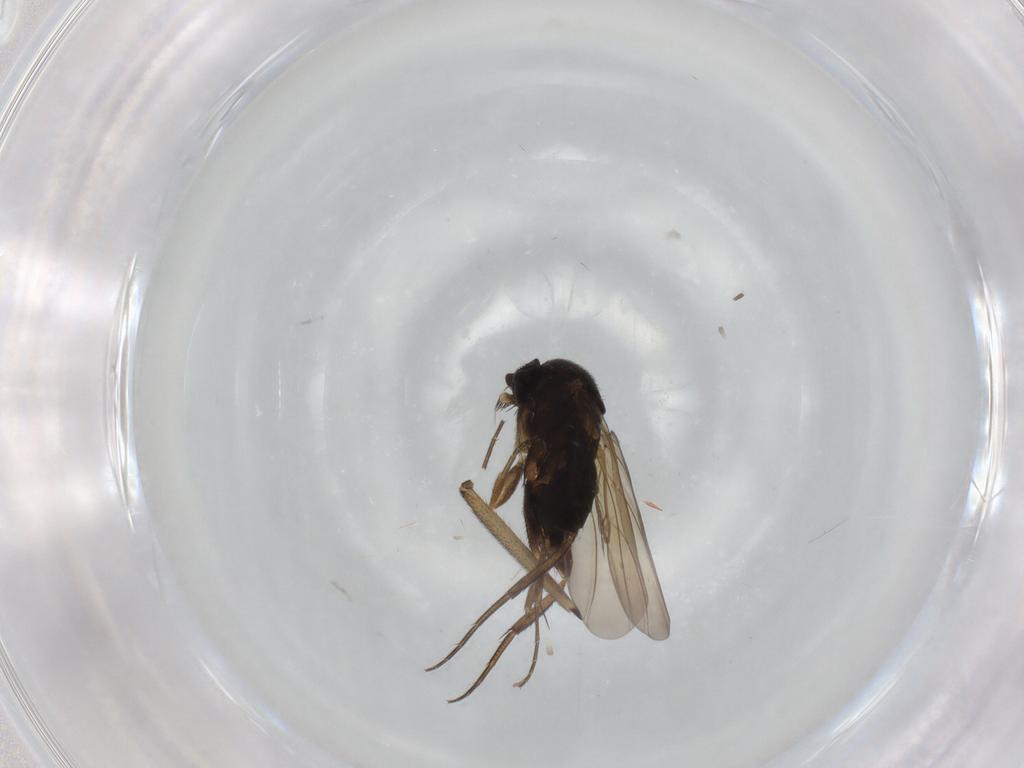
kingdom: Animalia
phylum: Arthropoda
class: Insecta
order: Diptera
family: Phoridae
